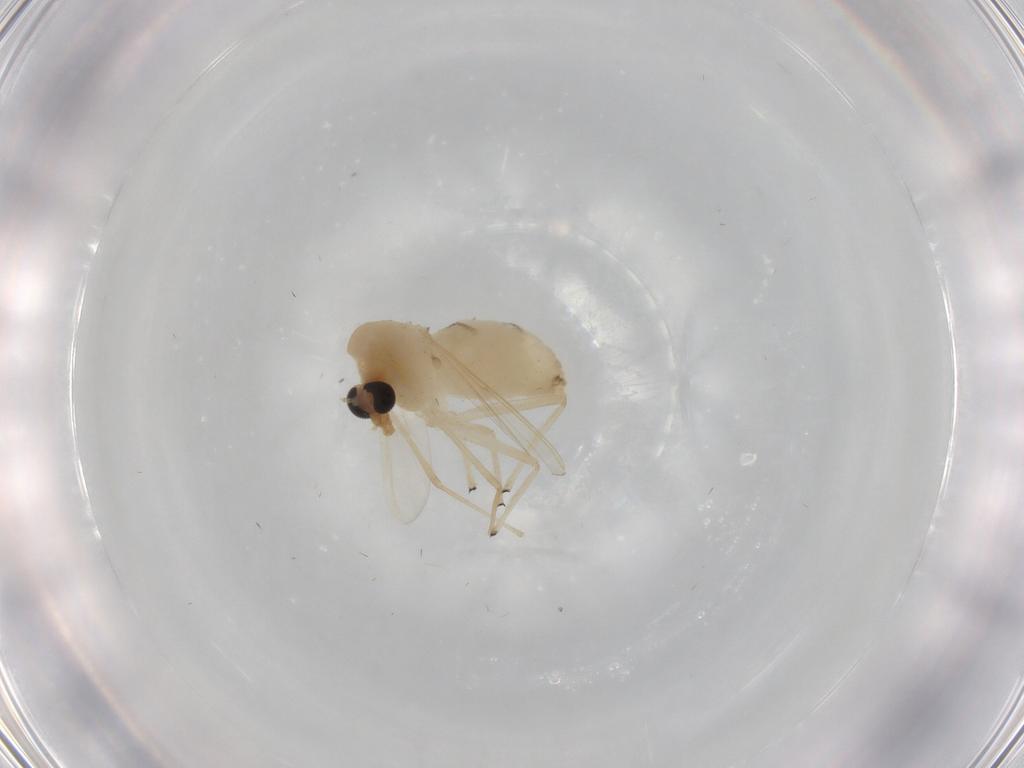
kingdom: Animalia
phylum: Arthropoda
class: Insecta
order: Diptera
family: Chironomidae
